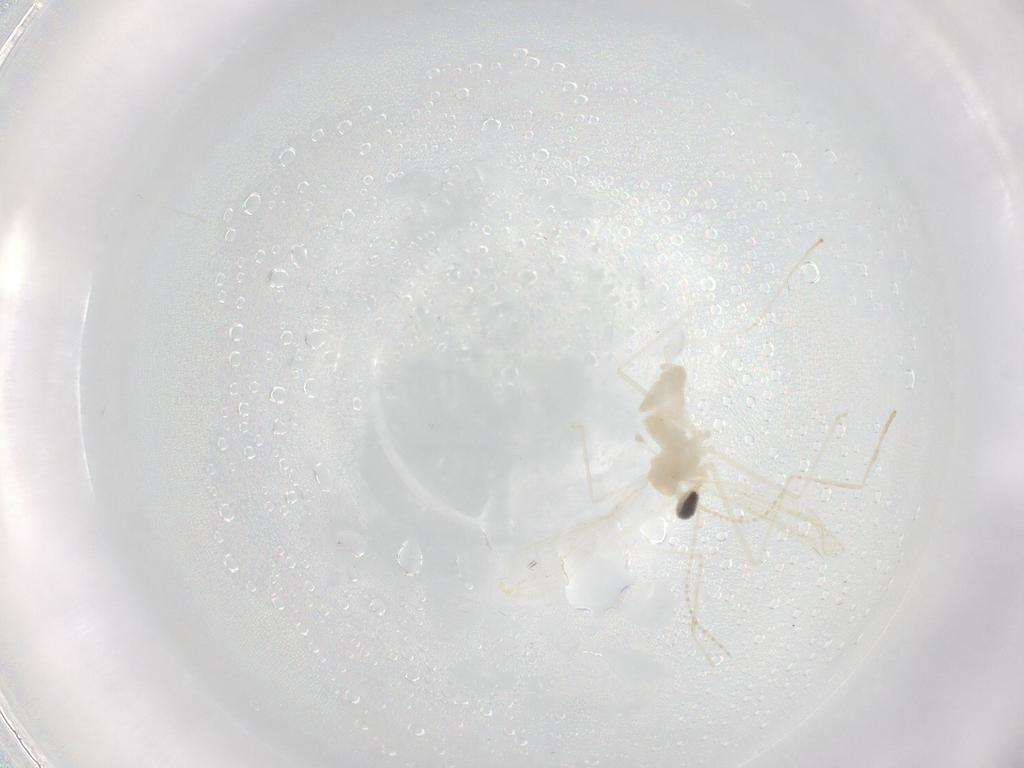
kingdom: Animalia
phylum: Arthropoda
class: Insecta
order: Diptera
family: Cecidomyiidae
